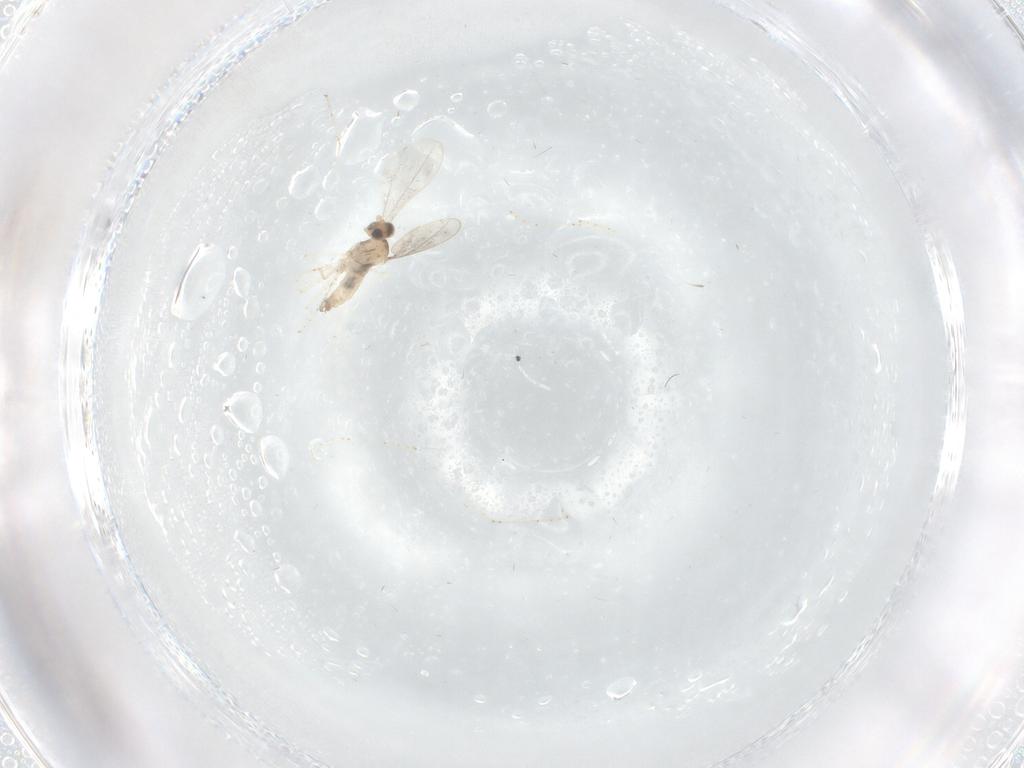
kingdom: Animalia
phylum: Arthropoda
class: Insecta
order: Diptera
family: Cecidomyiidae
